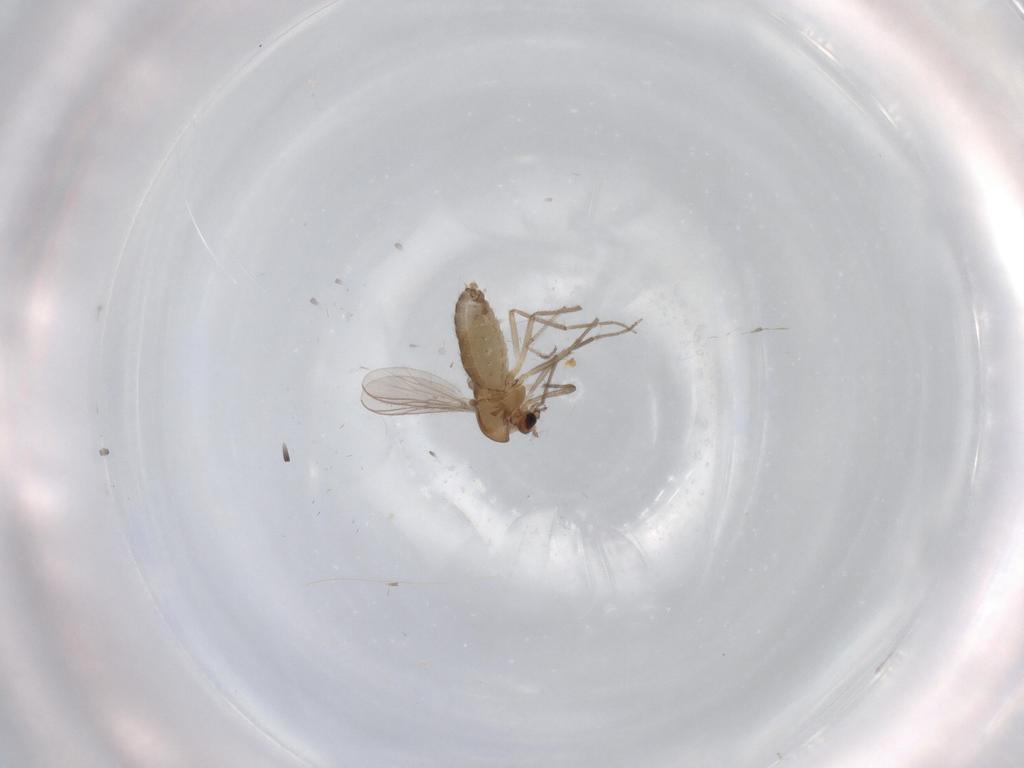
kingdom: Animalia
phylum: Arthropoda
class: Insecta
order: Diptera
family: Chironomidae
